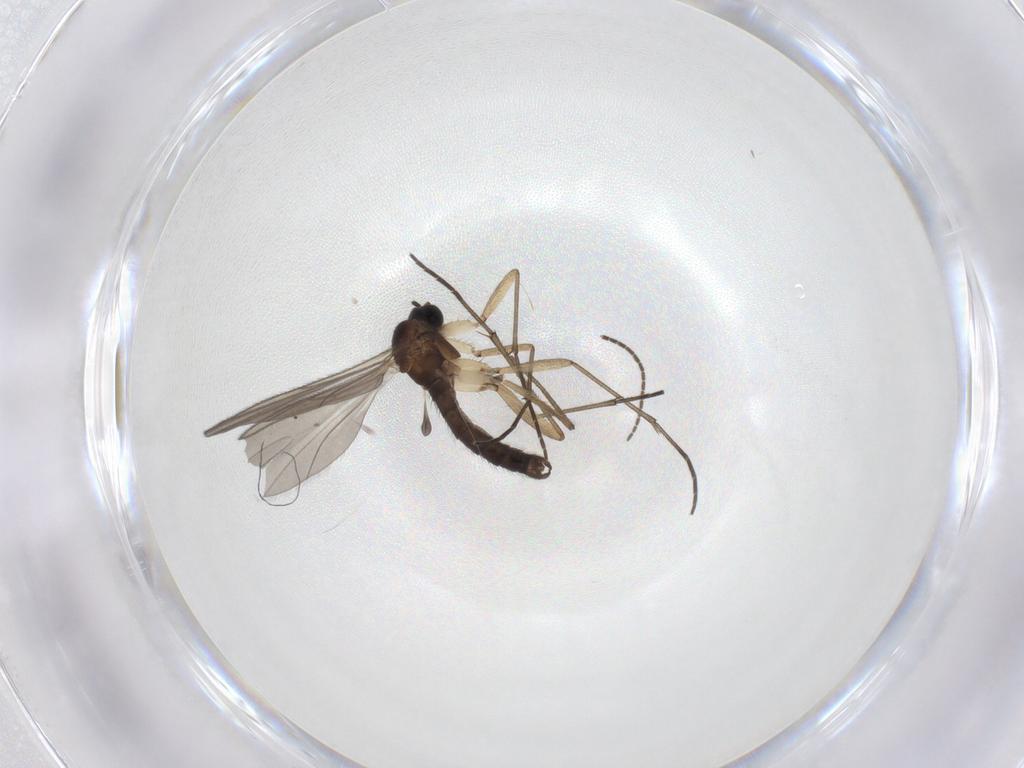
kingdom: Animalia
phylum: Arthropoda
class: Insecta
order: Diptera
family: Sciaridae
